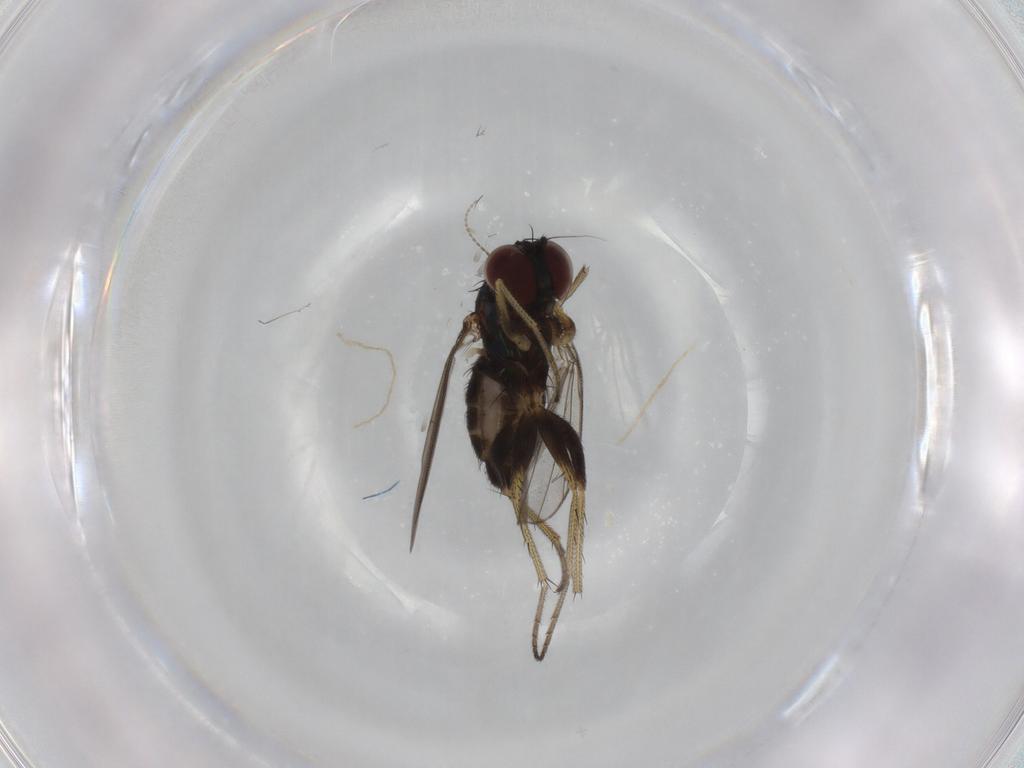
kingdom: Animalia
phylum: Arthropoda
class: Insecta
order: Diptera
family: Dolichopodidae
